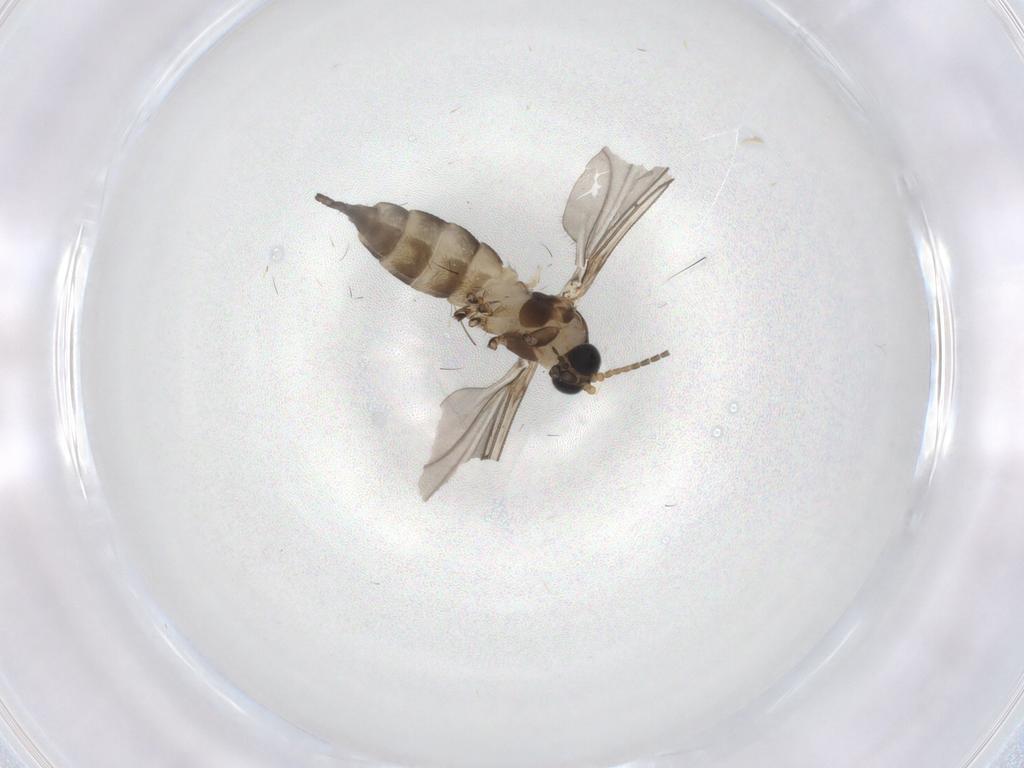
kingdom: Animalia
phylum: Arthropoda
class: Insecta
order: Diptera
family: Sciaridae
